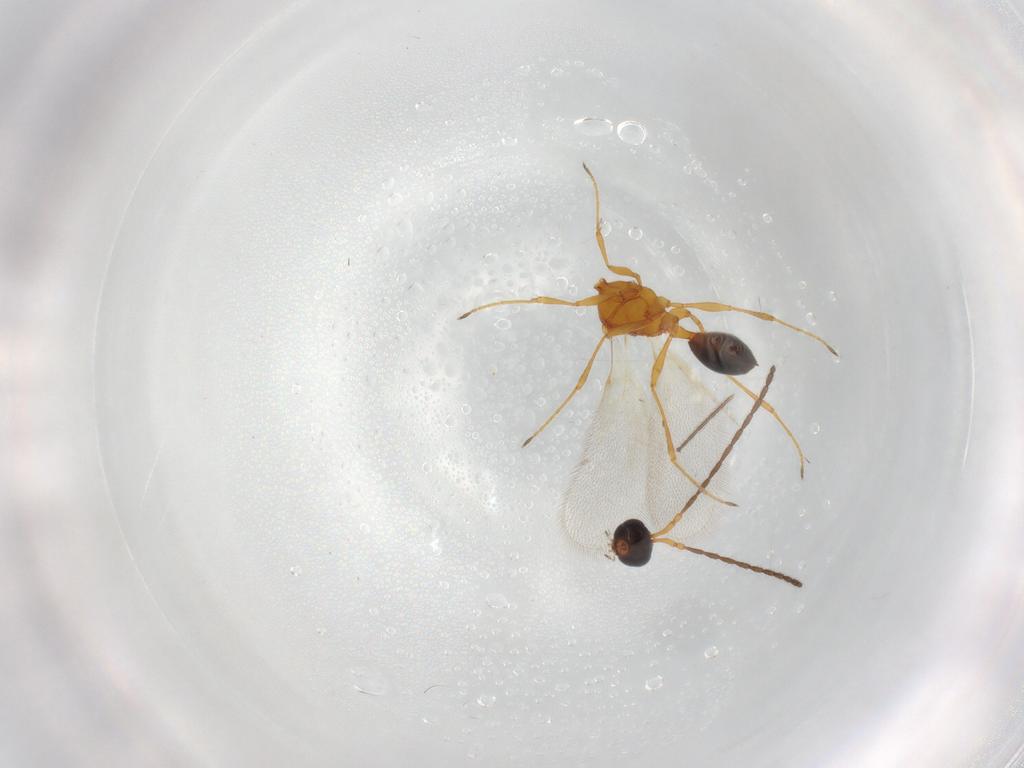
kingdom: Animalia
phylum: Arthropoda
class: Insecta
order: Hymenoptera
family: Diapriidae
